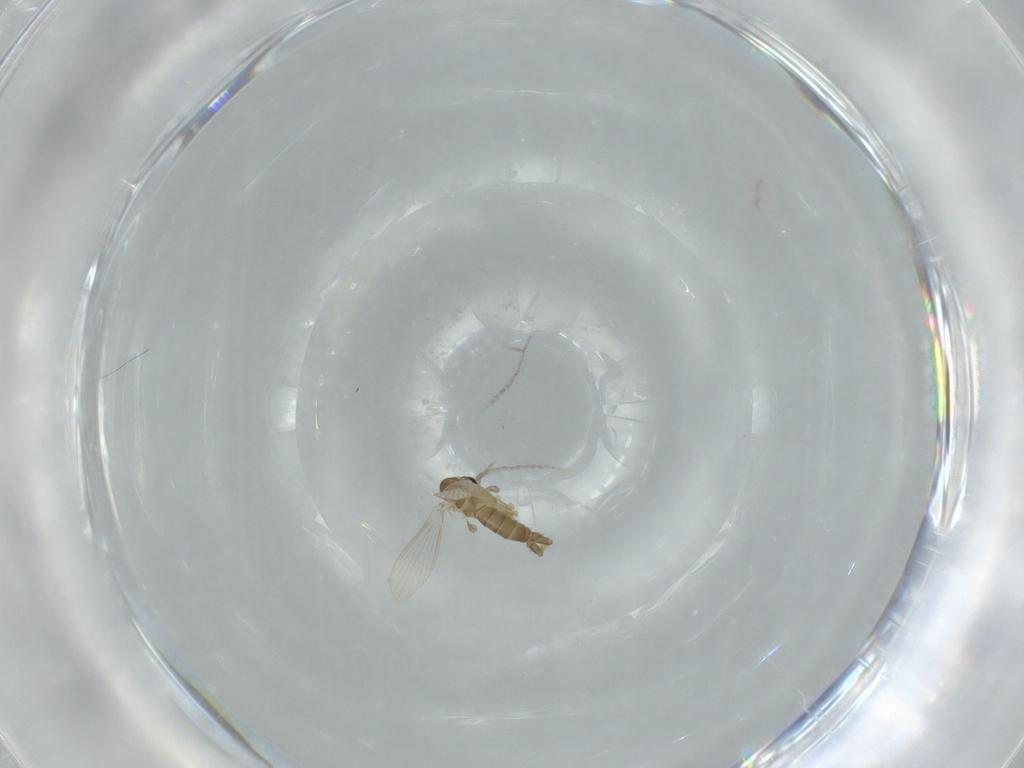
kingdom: Animalia
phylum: Arthropoda
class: Insecta
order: Diptera
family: Psychodidae
